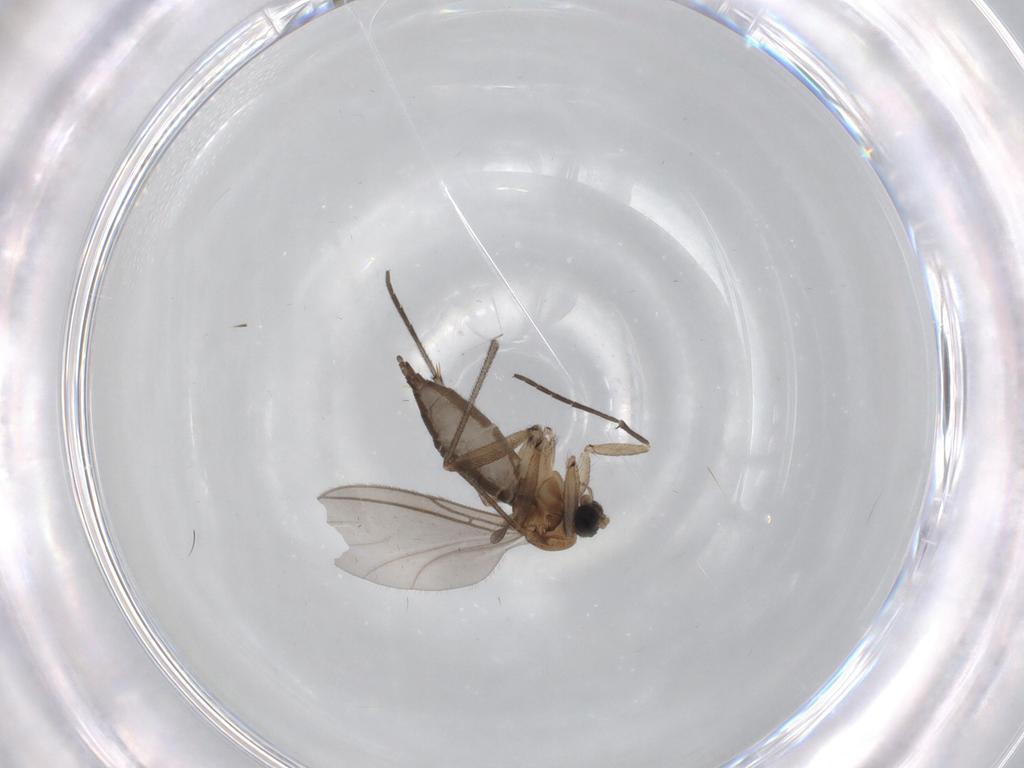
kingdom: Animalia
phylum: Arthropoda
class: Insecta
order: Diptera
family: Sciaridae
